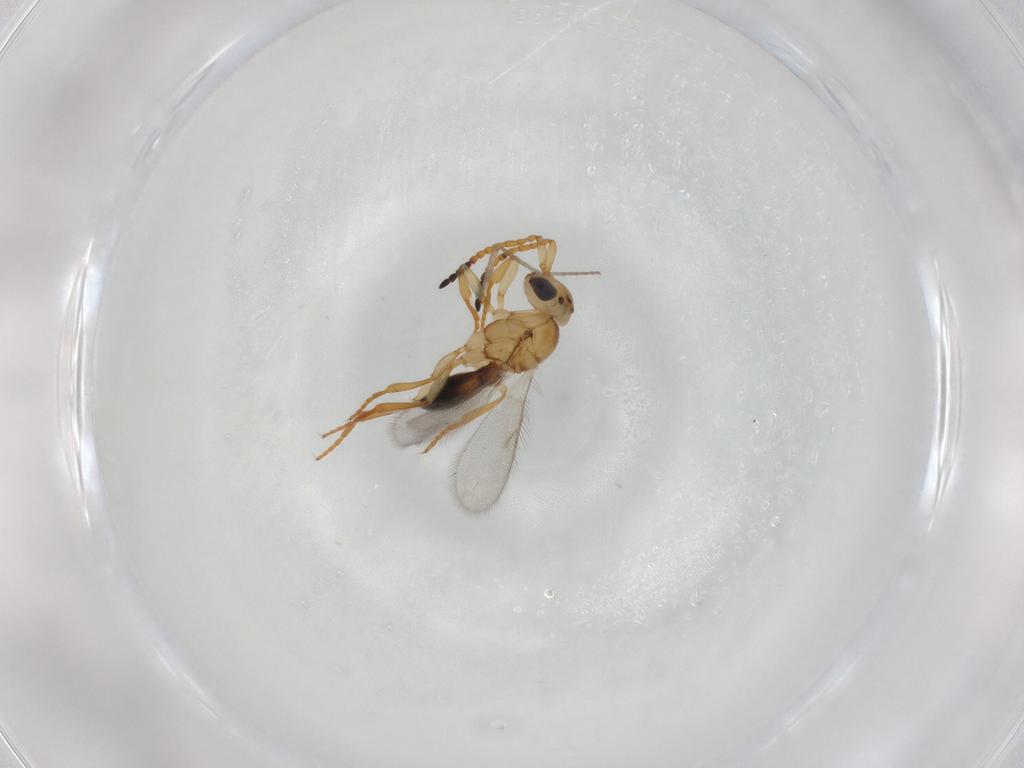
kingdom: Animalia
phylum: Arthropoda
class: Insecta
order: Hymenoptera
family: Scelionidae
